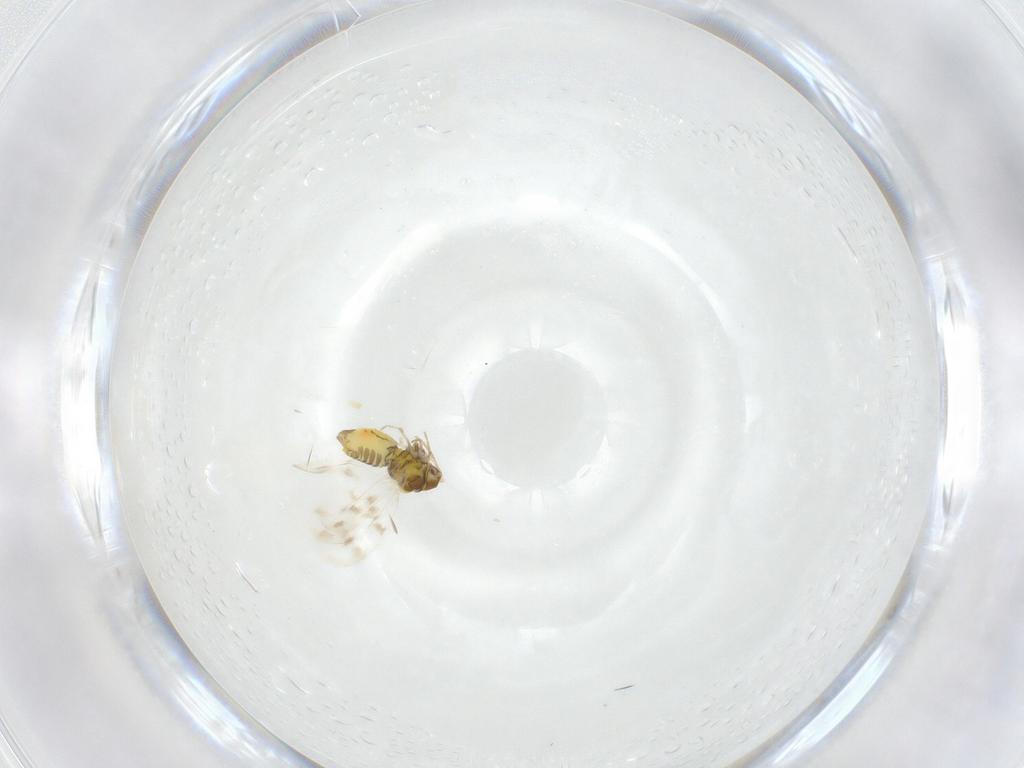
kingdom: Animalia
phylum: Arthropoda
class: Insecta
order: Hemiptera
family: Aleyrodidae
